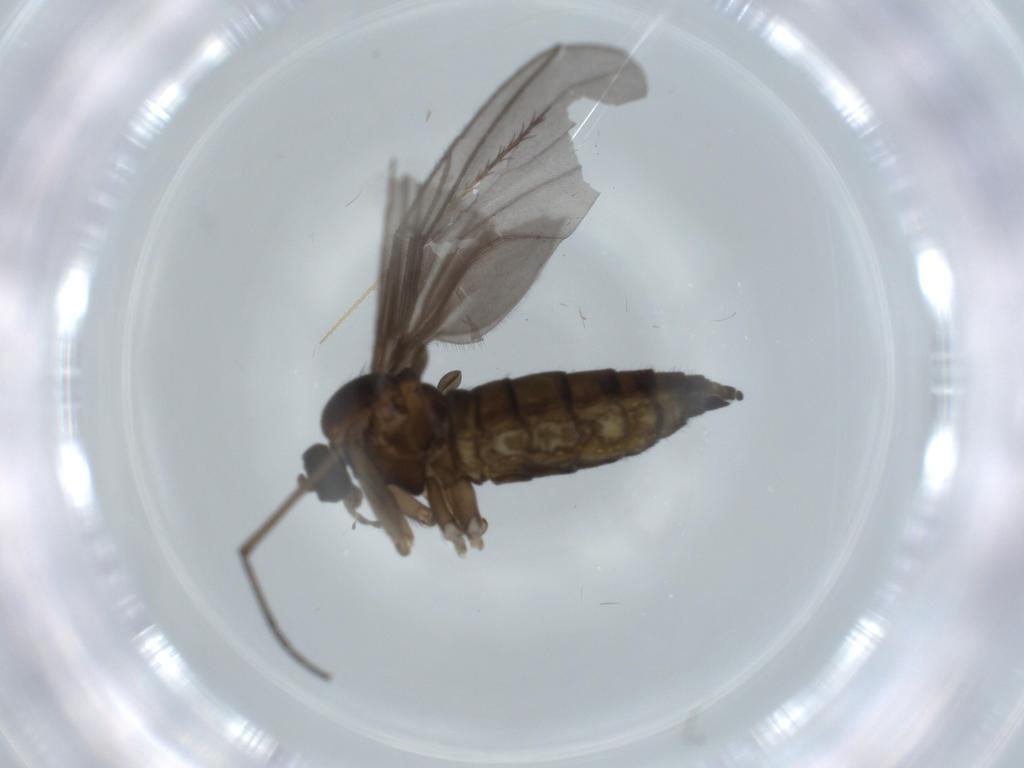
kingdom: Animalia
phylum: Arthropoda
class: Insecta
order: Diptera
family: Sciaridae
